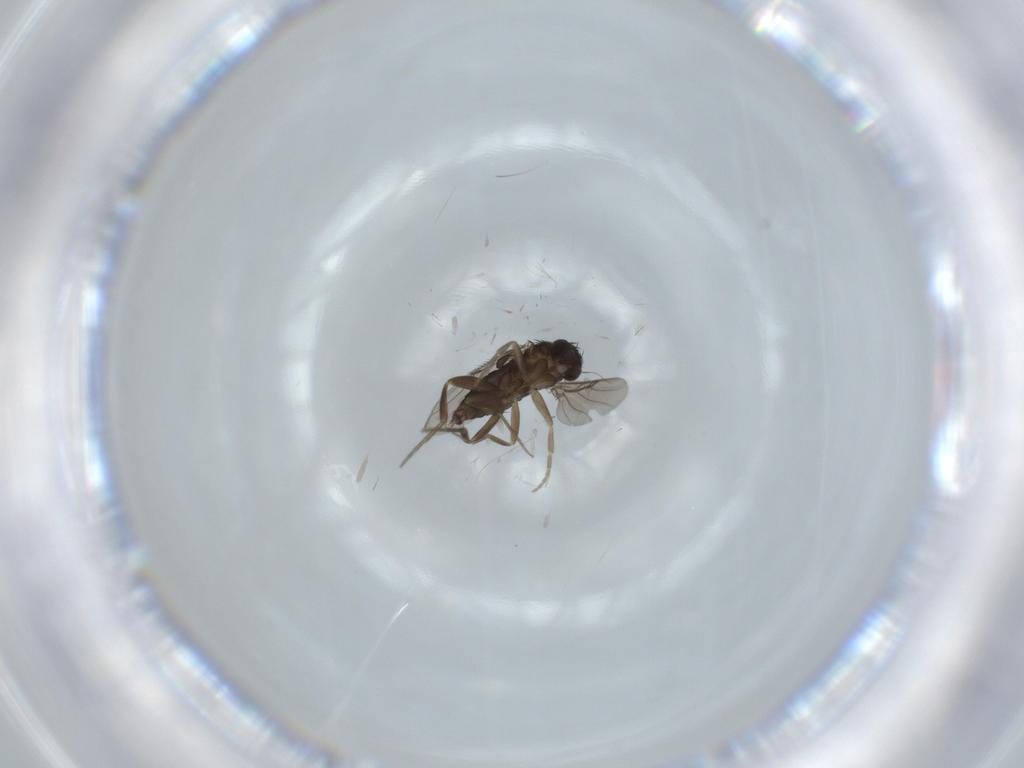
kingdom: Animalia
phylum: Arthropoda
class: Insecta
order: Diptera
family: Phoridae
